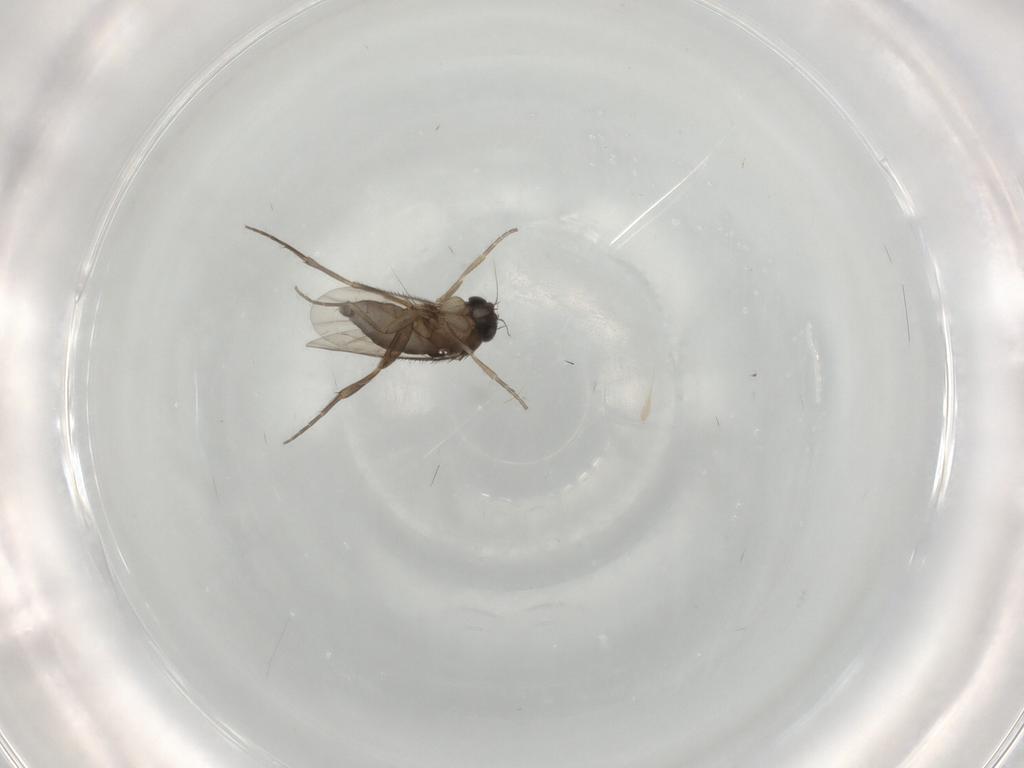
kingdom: Animalia
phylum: Arthropoda
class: Insecta
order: Diptera
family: Phoridae
